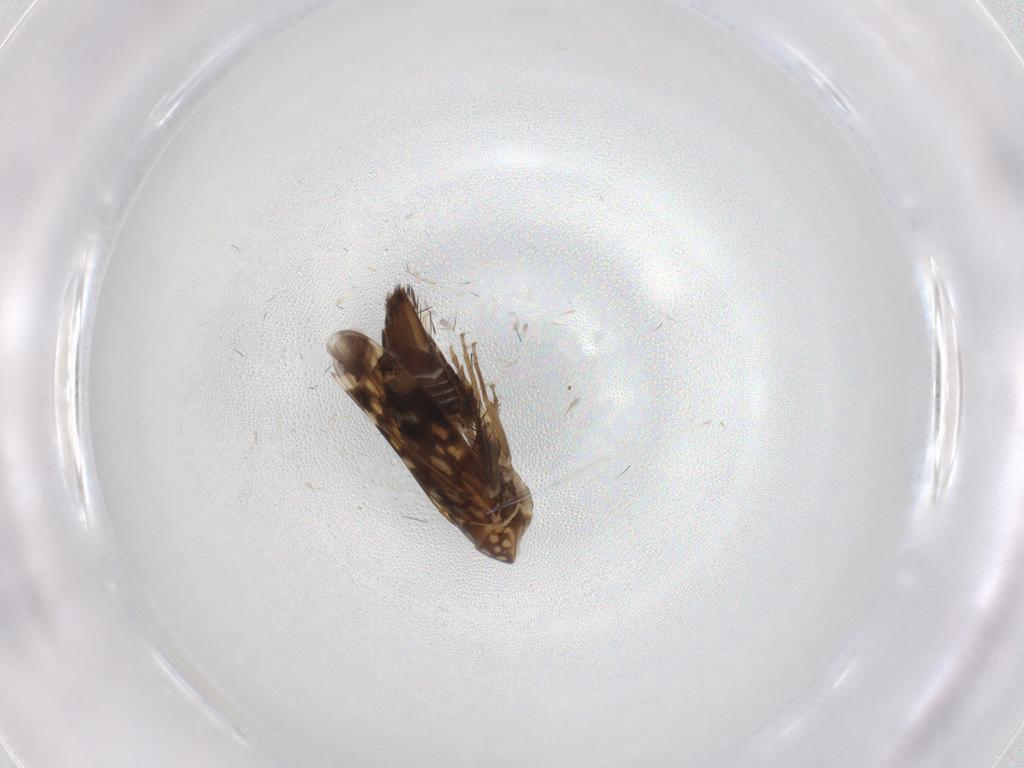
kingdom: Animalia
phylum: Arthropoda
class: Insecta
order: Hemiptera
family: Cicadellidae
